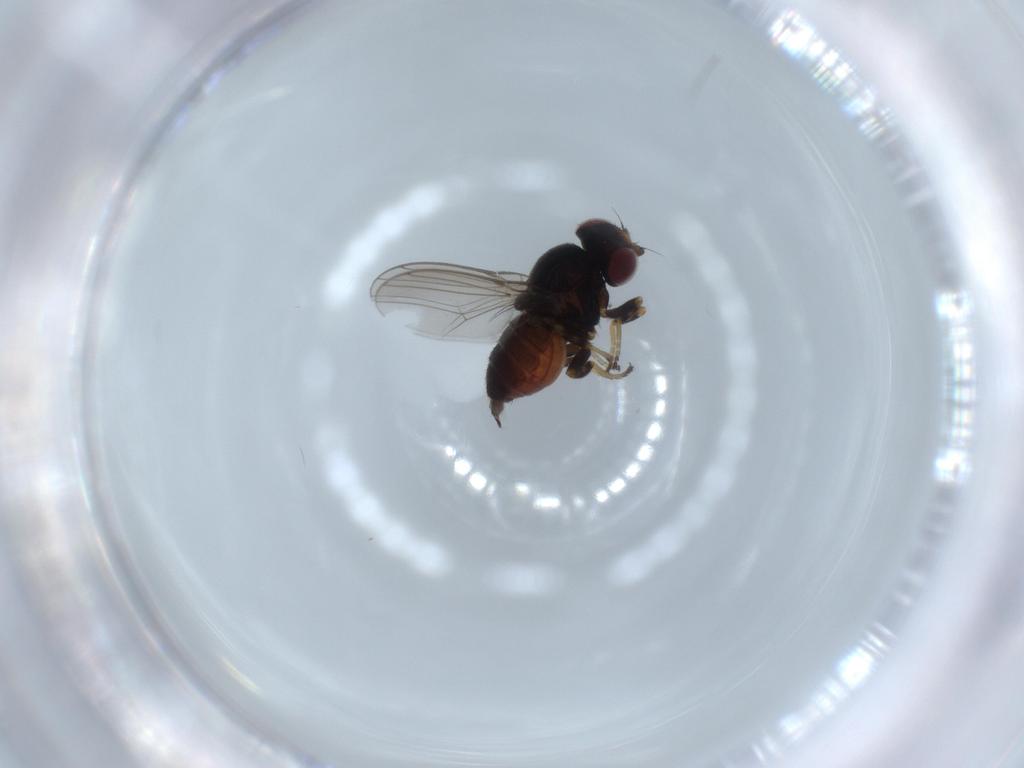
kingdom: Animalia
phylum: Arthropoda
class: Insecta
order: Diptera
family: Chloropidae
